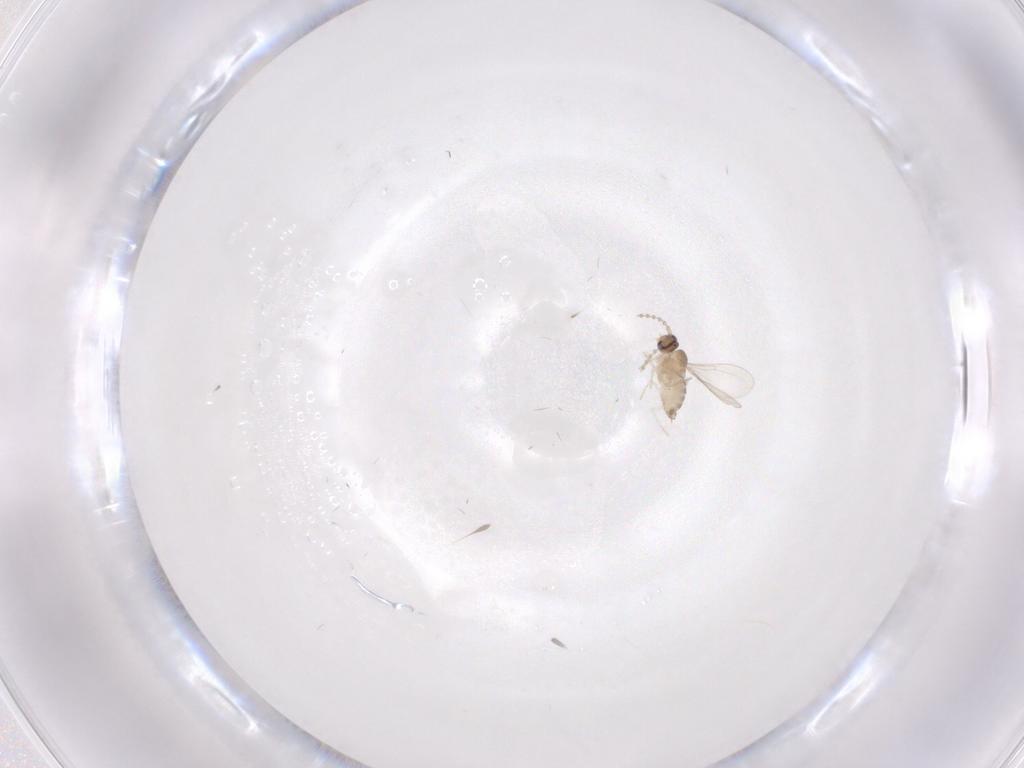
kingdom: Animalia
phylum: Arthropoda
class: Insecta
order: Diptera
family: Cecidomyiidae
